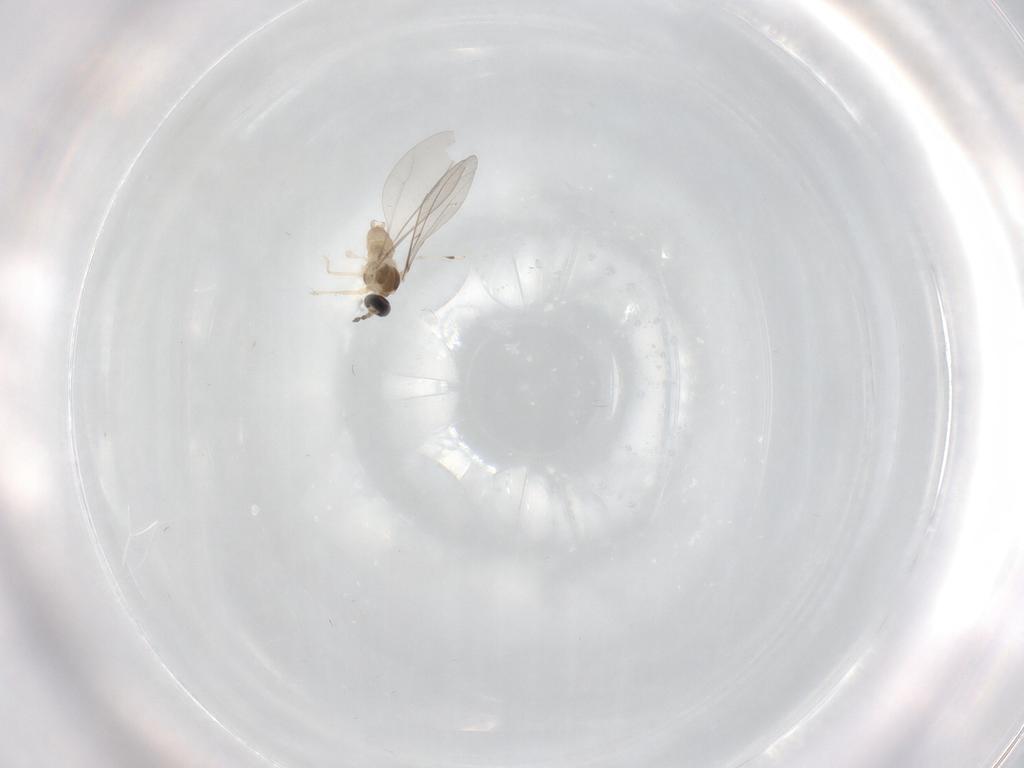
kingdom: Animalia
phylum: Arthropoda
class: Insecta
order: Diptera
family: Cecidomyiidae
